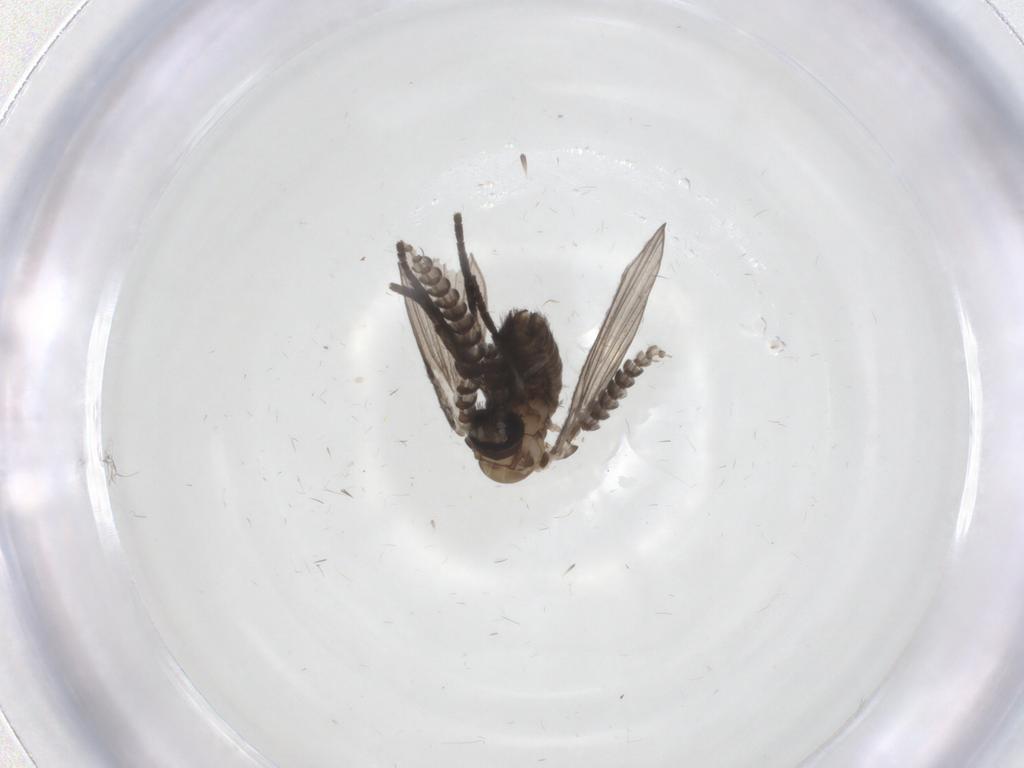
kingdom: Animalia
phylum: Arthropoda
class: Insecta
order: Diptera
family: Psychodidae
